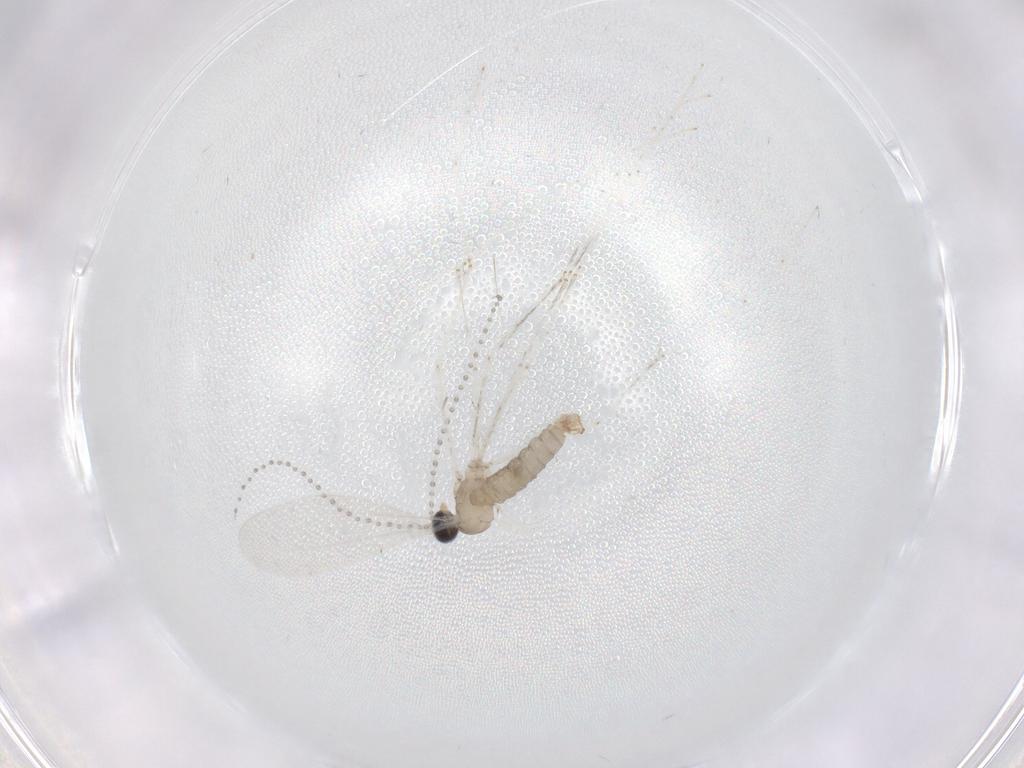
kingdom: Animalia
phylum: Arthropoda
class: Insecta
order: Diptera
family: Cecidomyiidae
